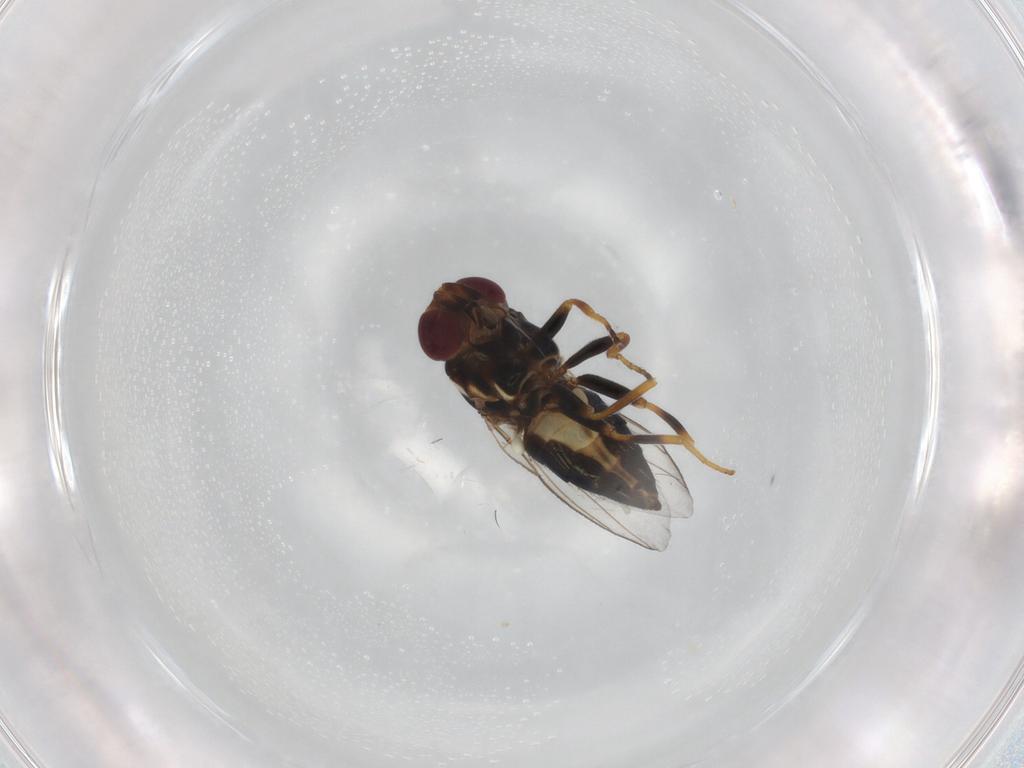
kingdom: Animalia
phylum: Arthropoda
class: Insecta
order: Diptera
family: Chloropidae
